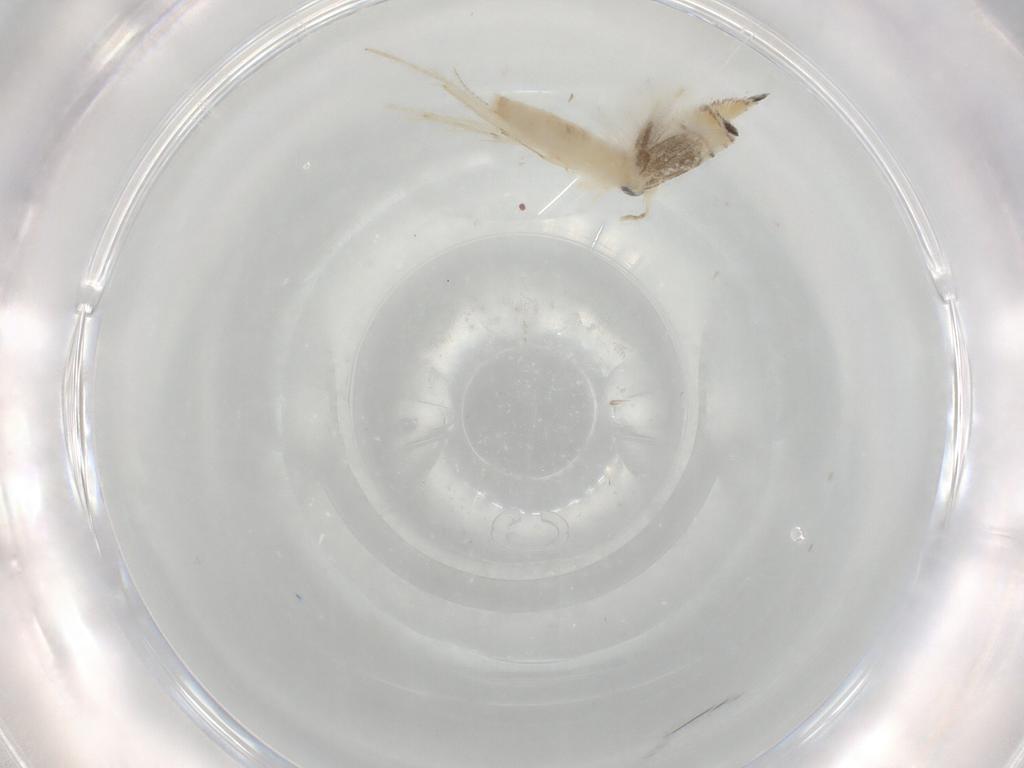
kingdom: Animalia
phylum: Arthropoda
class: Insecta
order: Lepidoptera
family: Gracillariidae
